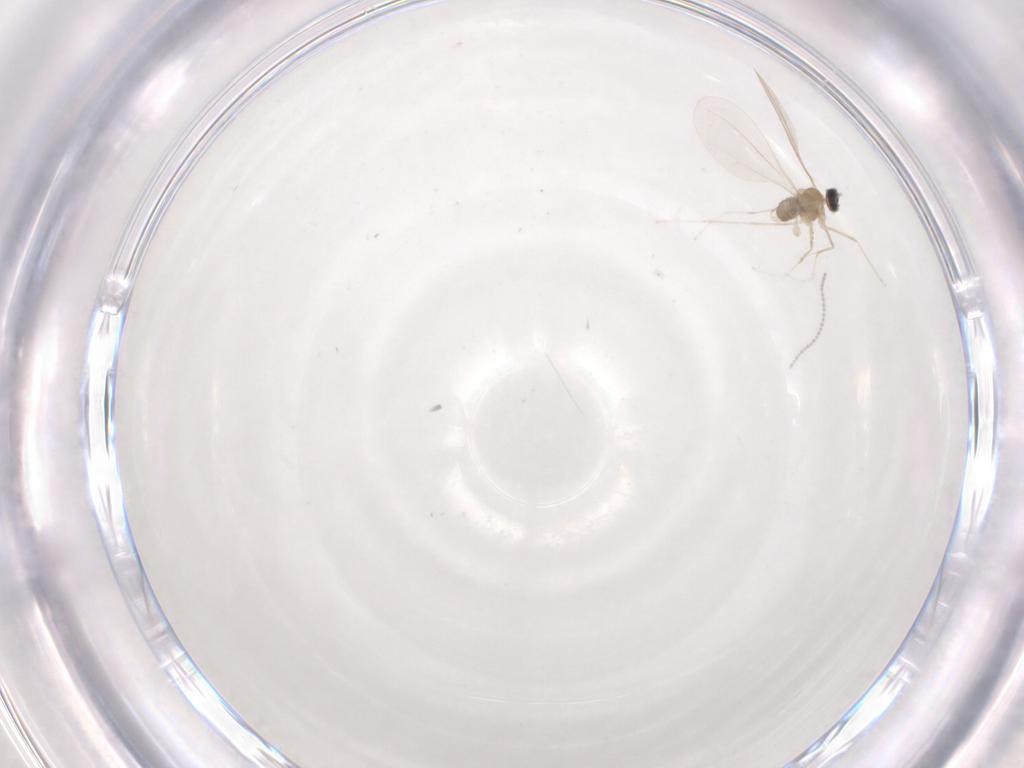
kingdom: Animalia
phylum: Arthropoda
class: Insecta
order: Diptera
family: Cecidomyiidae
